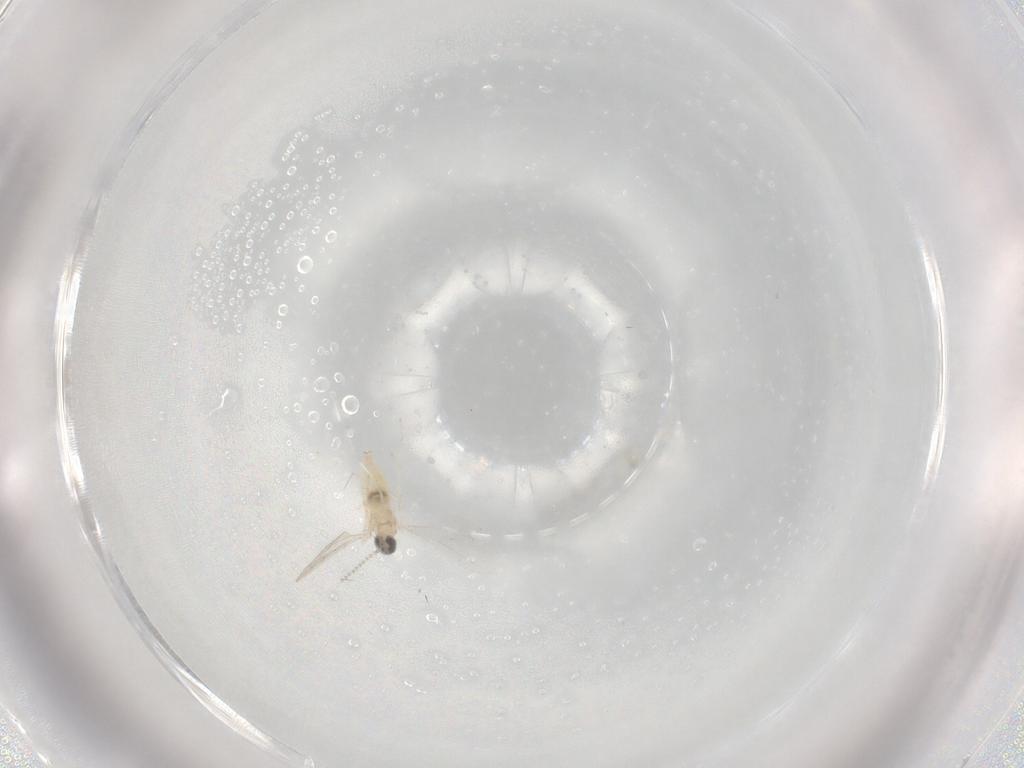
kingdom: Animalia
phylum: Arthropoda
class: Insecta
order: Diptera
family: Cecidomyiidae
